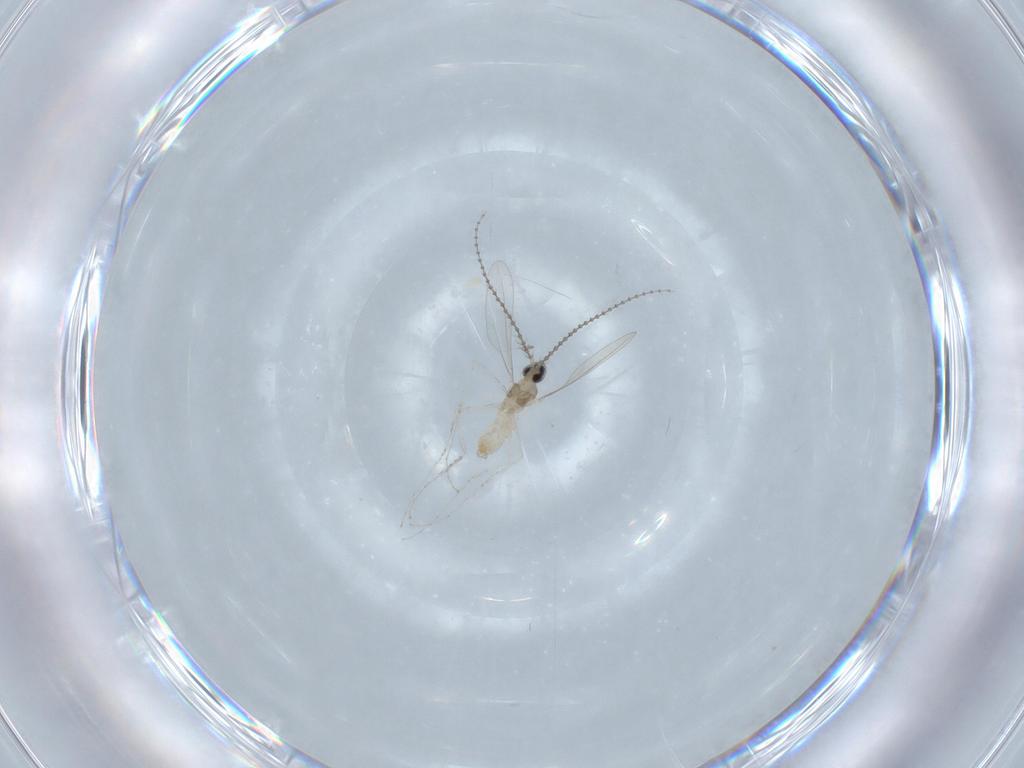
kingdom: Animalia
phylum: Arthropoda
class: Insecta
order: Diptera
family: Cecidomyiidae
